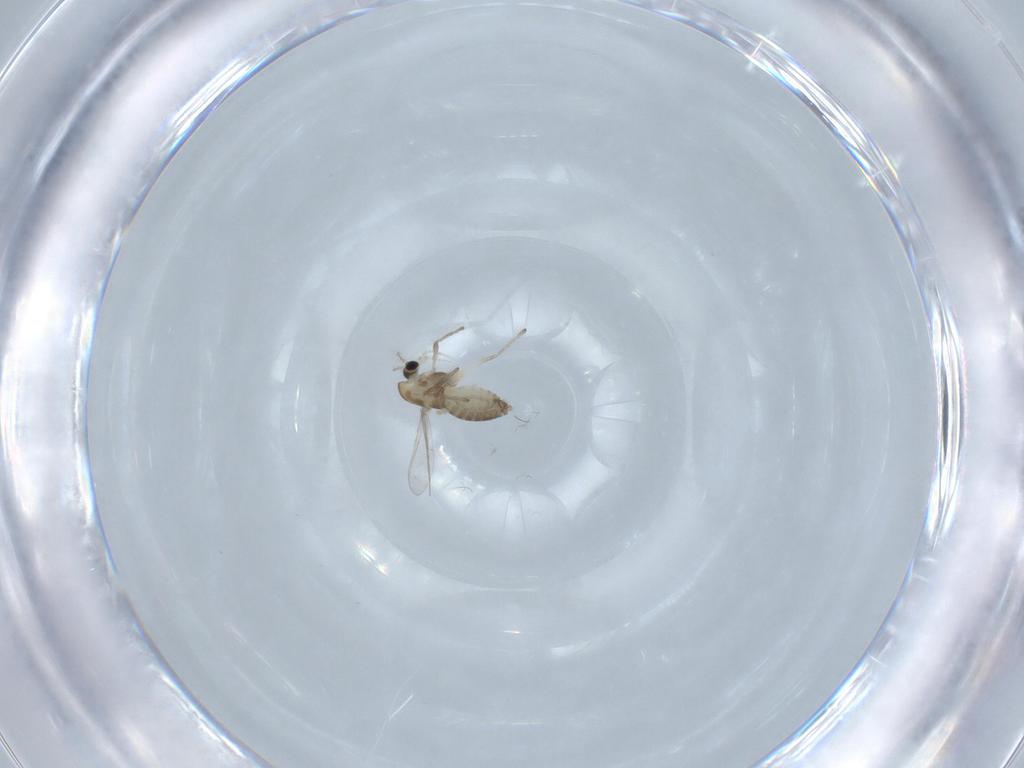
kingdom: Animalia
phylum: Arthropoda
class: Insecta
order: Diptera
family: Chironomidae
